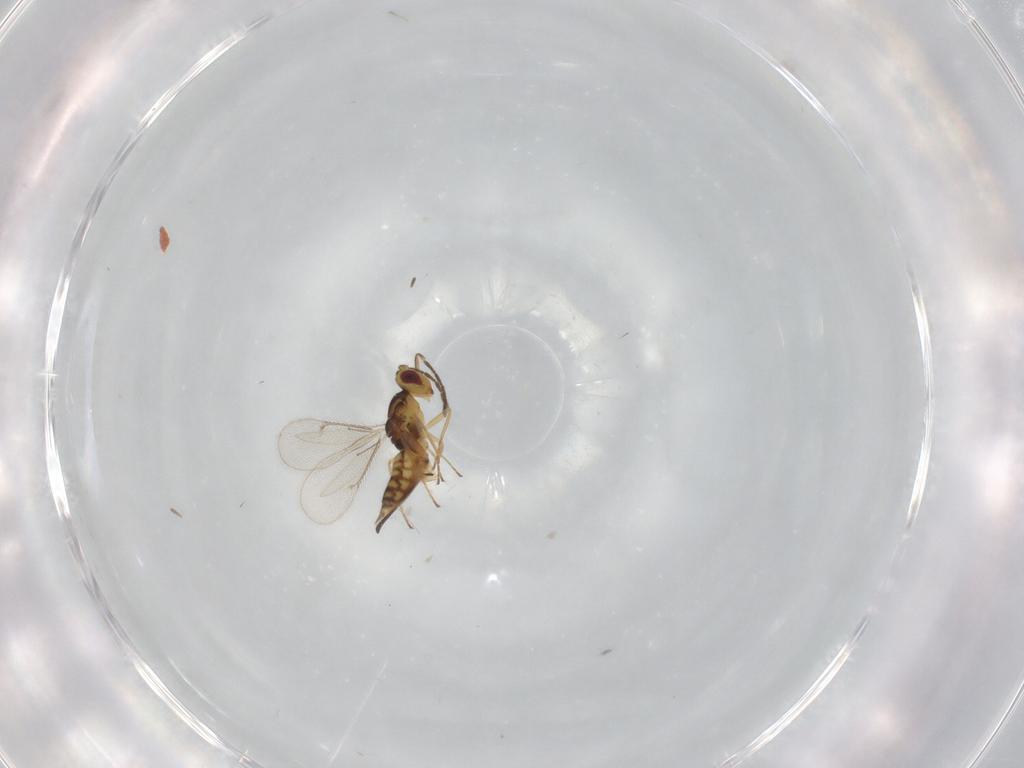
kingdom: Animalia
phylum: Arthropoda
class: Insecta
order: Hymenoptera
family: Eulophidae
